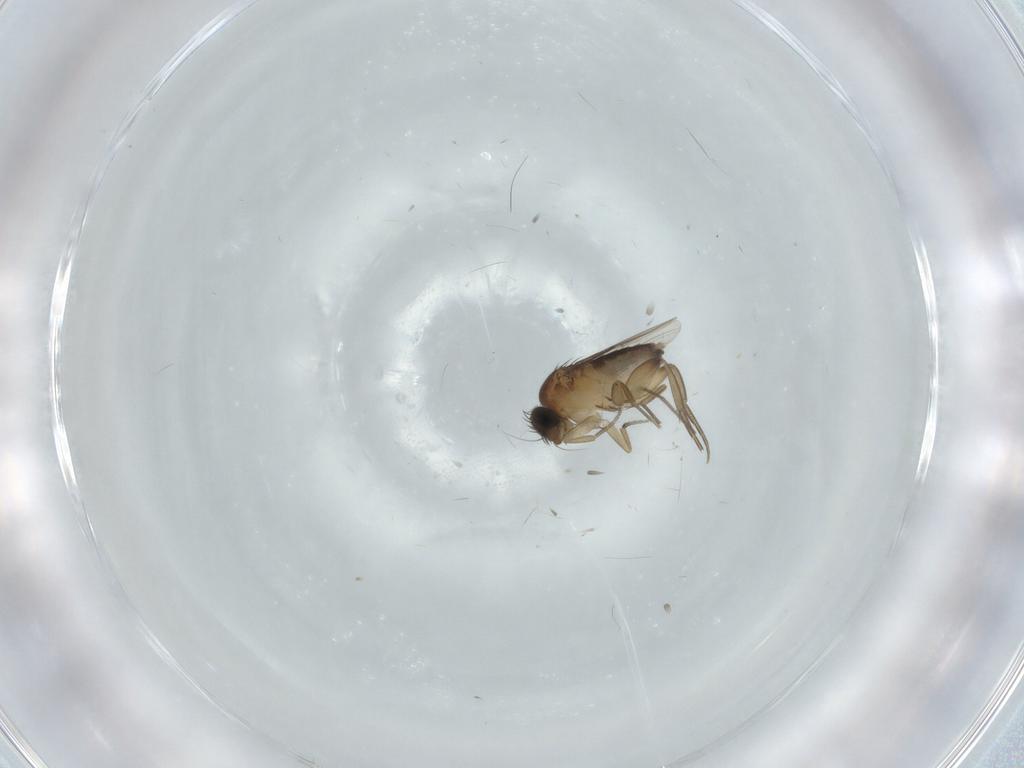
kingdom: Animalia
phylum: Arthropoda
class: Insecta
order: Diptera
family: Phoridae
